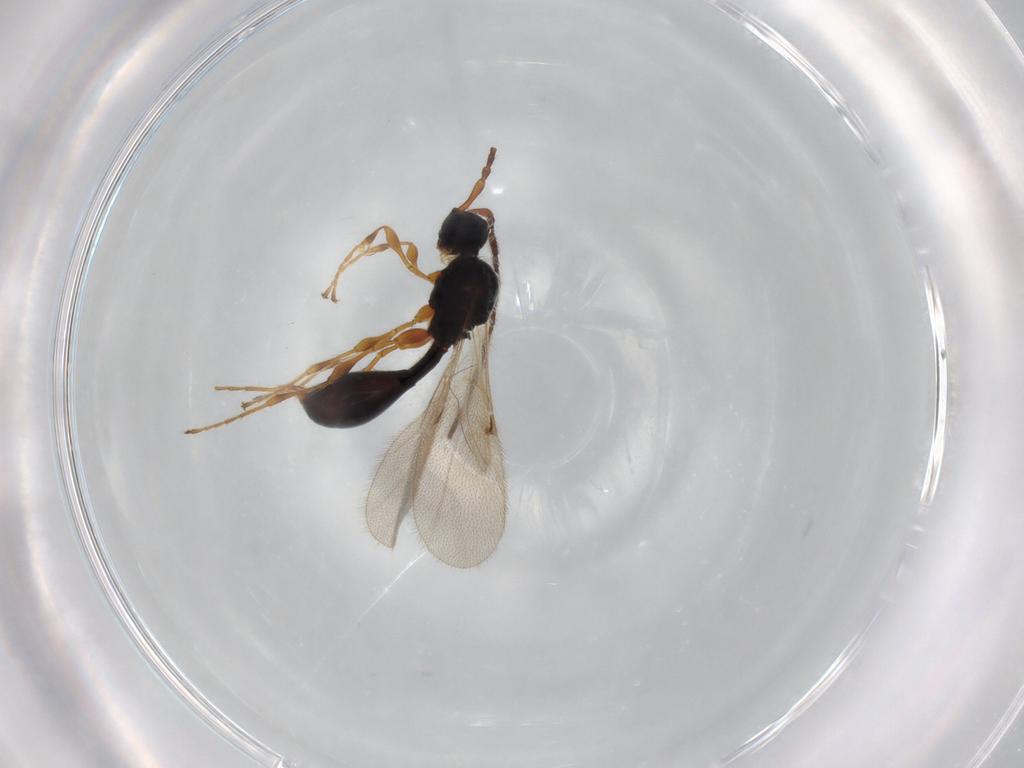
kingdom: Animalia
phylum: Arthropoda
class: Insecta
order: Hymenoptera
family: Diapriidae
